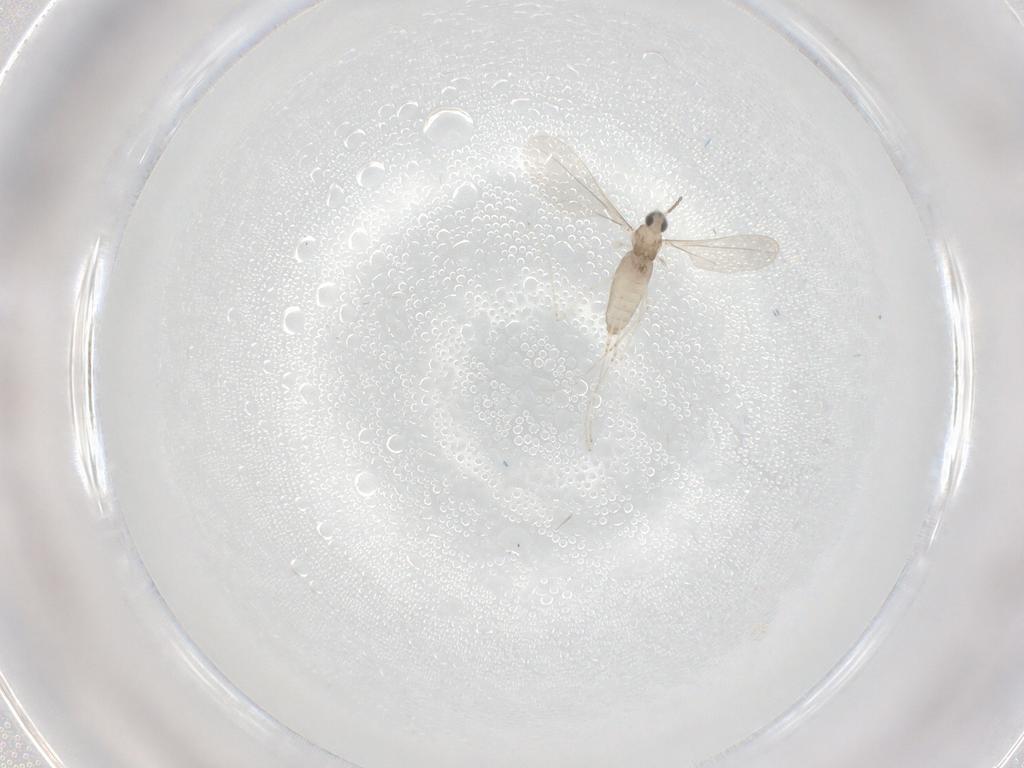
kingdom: Animalia
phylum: Arthropoda
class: Insecta
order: Diptera
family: Psychodidae
